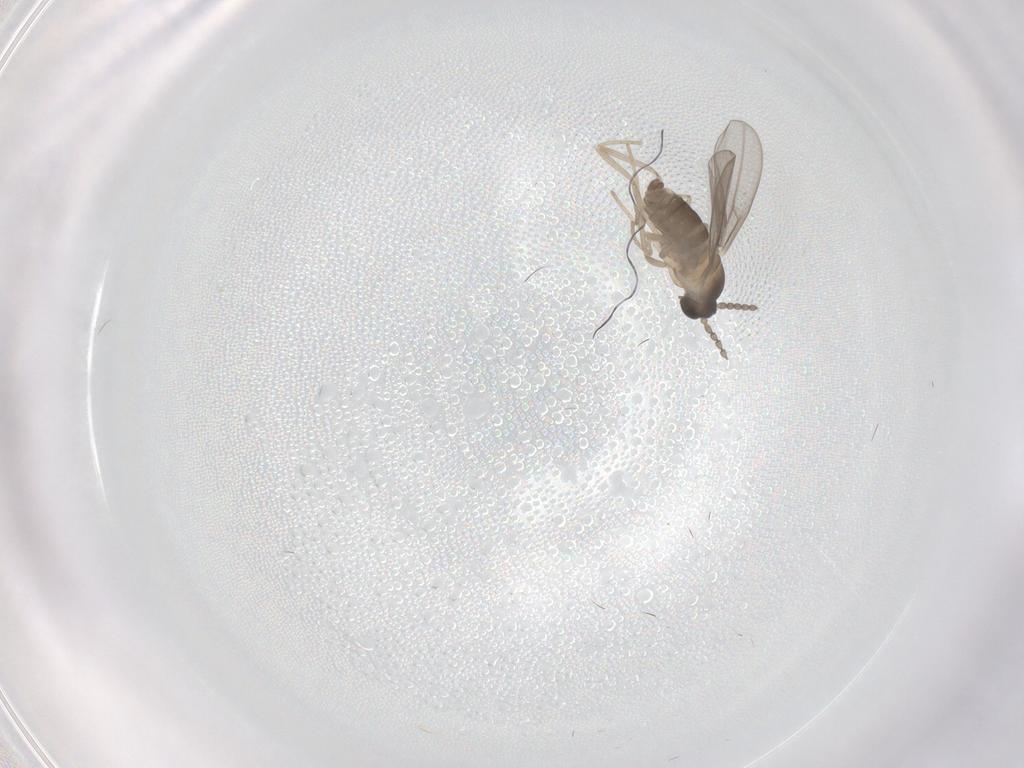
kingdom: Animalia
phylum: Arthropoda
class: Insecta
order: Diptera
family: Cecidomyiidae
